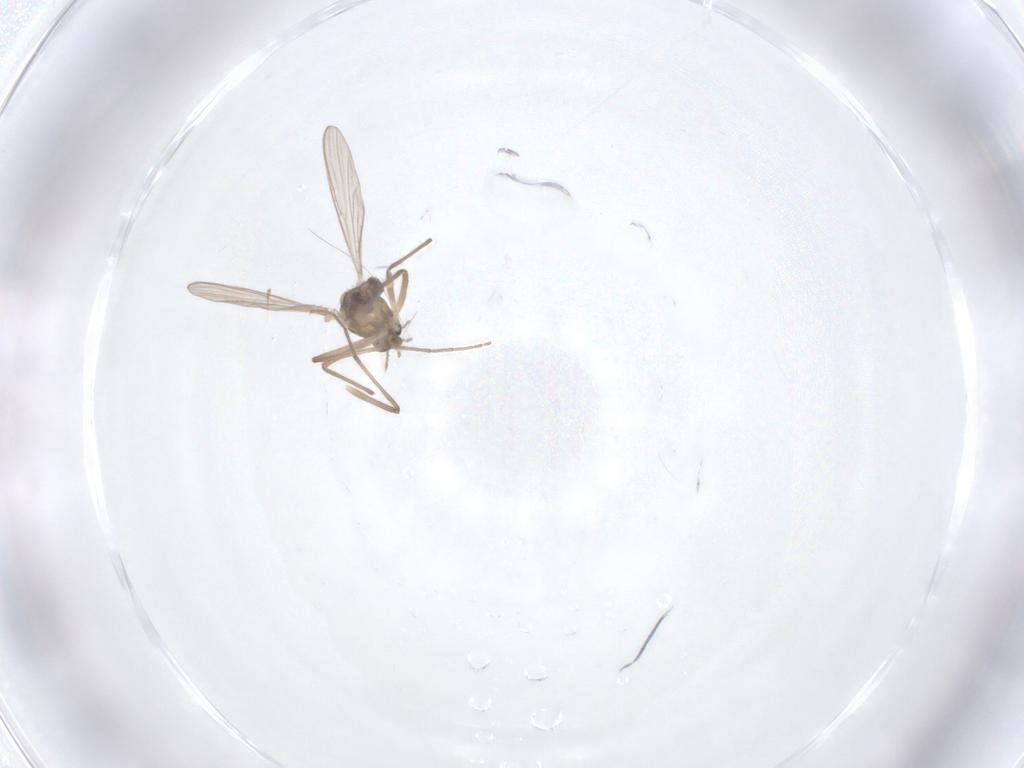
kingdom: Animalia
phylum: Arthropoda
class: Insecta
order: Diptera
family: Chironomidae
